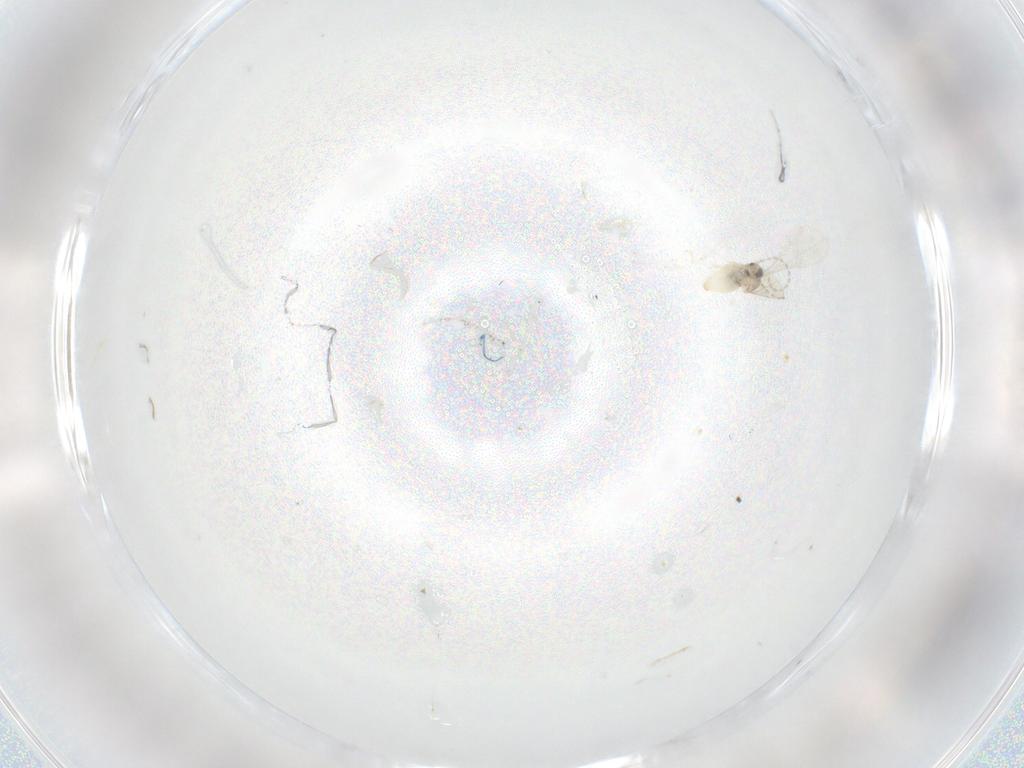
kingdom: Animalia
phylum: Arthropoda
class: Insecta
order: Diptera
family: Cecidomyiidae
